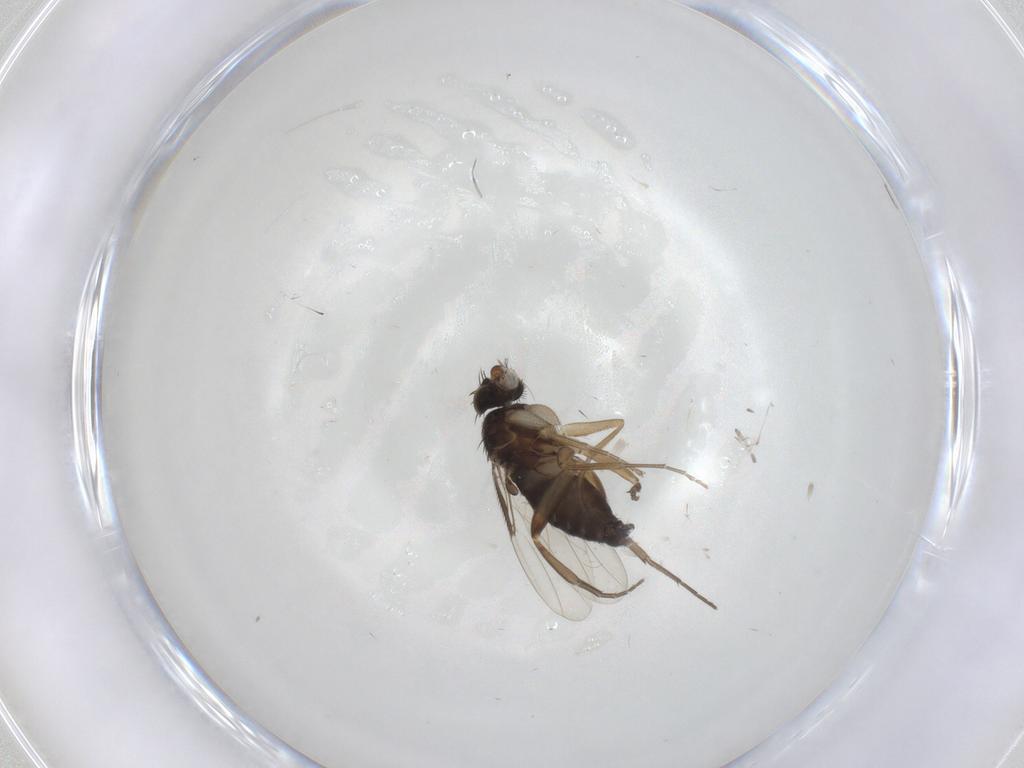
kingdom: Animalia
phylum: Arthropoda
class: Insecta
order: Diptera
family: Phoridae
